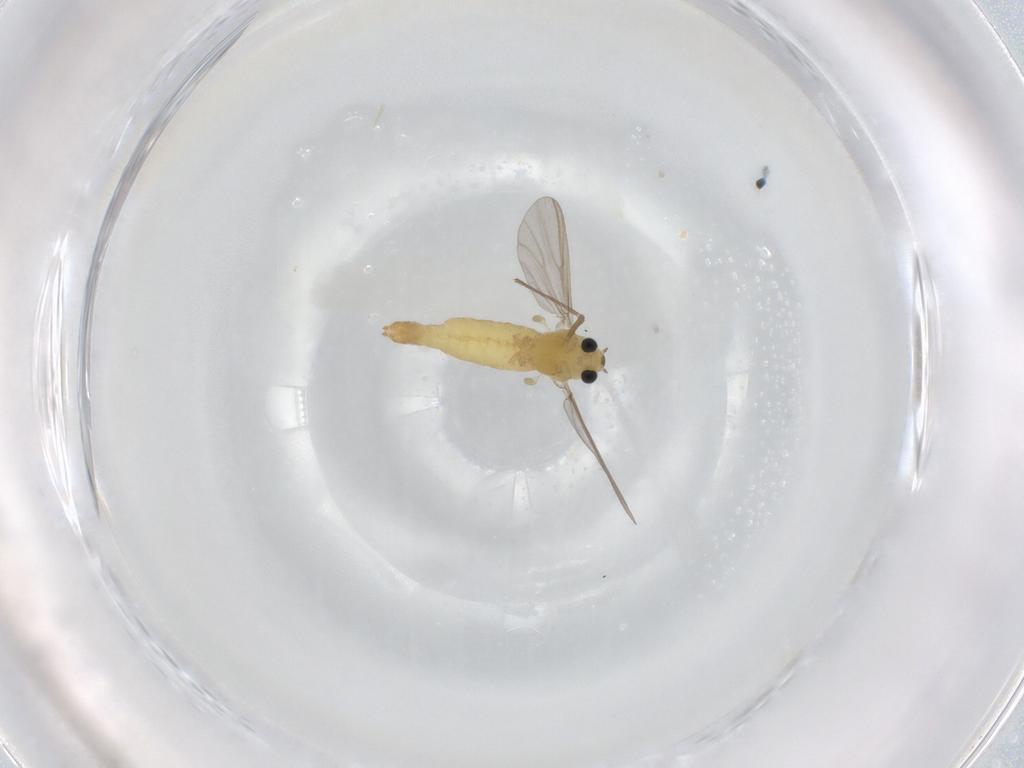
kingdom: Animalia
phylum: Arthropoda
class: Insecta
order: Diptera
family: Chironomidae
